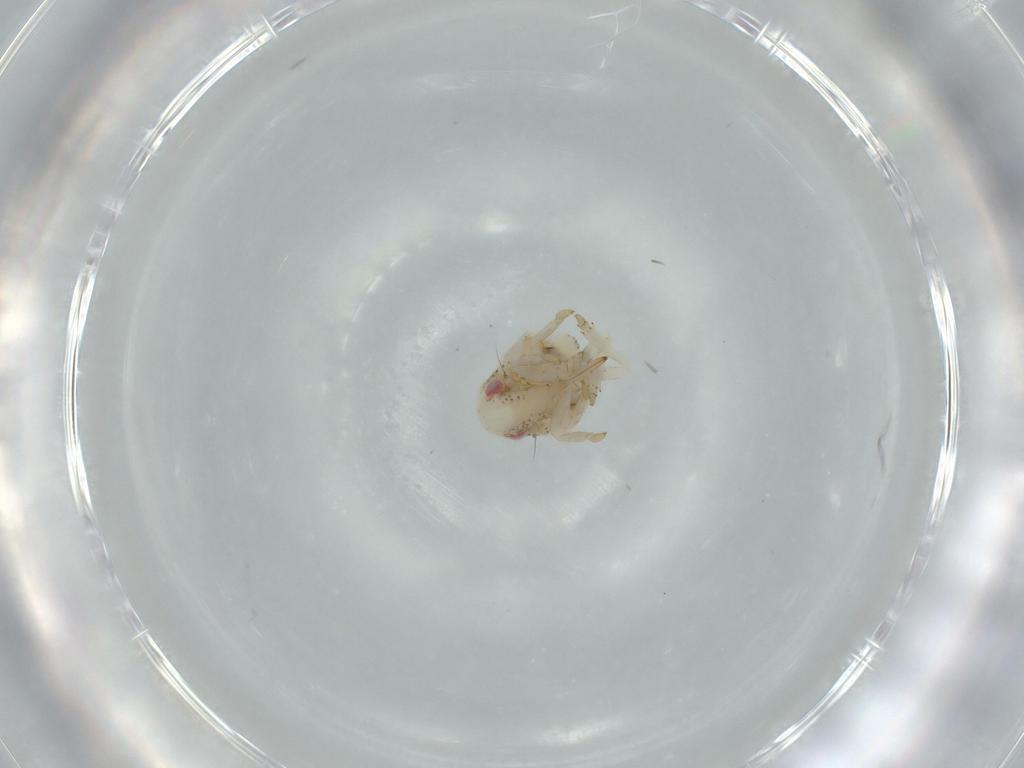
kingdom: Animalia
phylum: Arthropoda
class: Insecta
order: Hemiptera
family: Acanaloniidae
